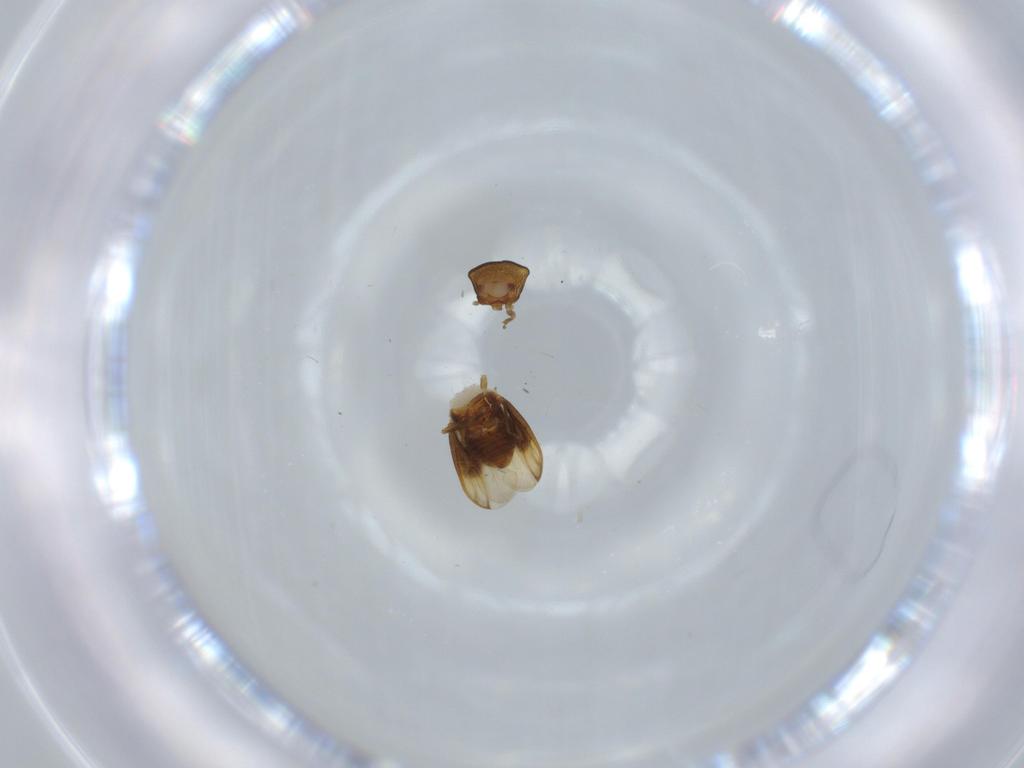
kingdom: Animalia
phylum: Arthropoda
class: Collembola
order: Entomobryomorpha
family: Entomobryidae
